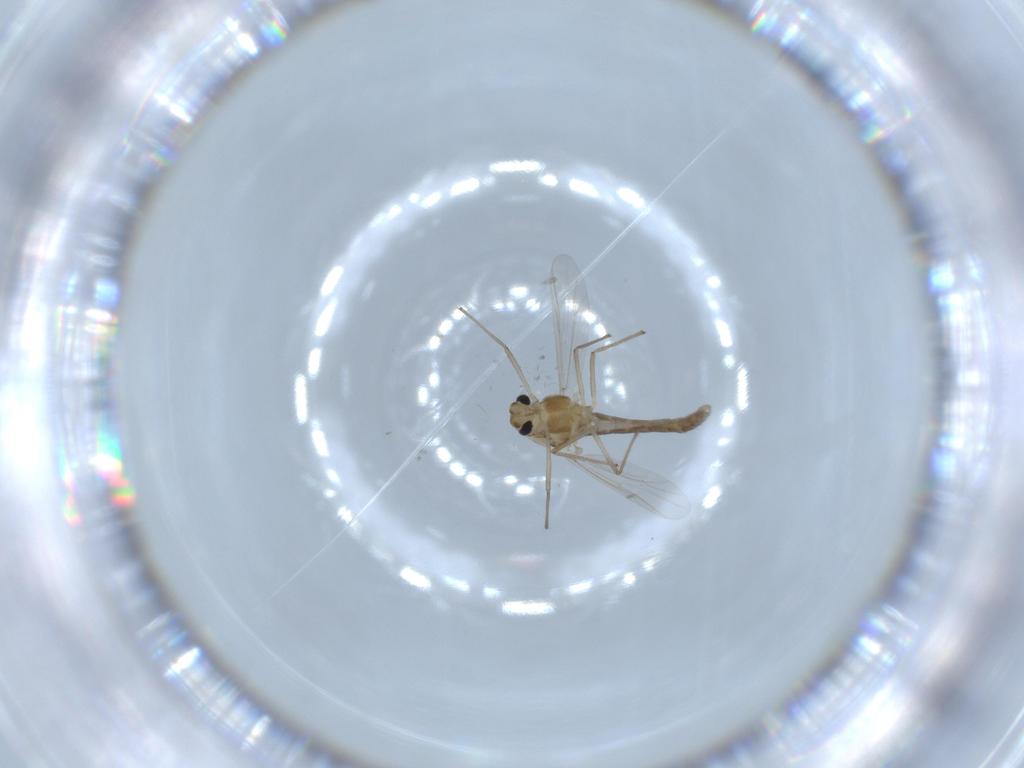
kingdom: Animalia
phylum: Arthropoda
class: Insecta
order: Diptera
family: Chironomidae
